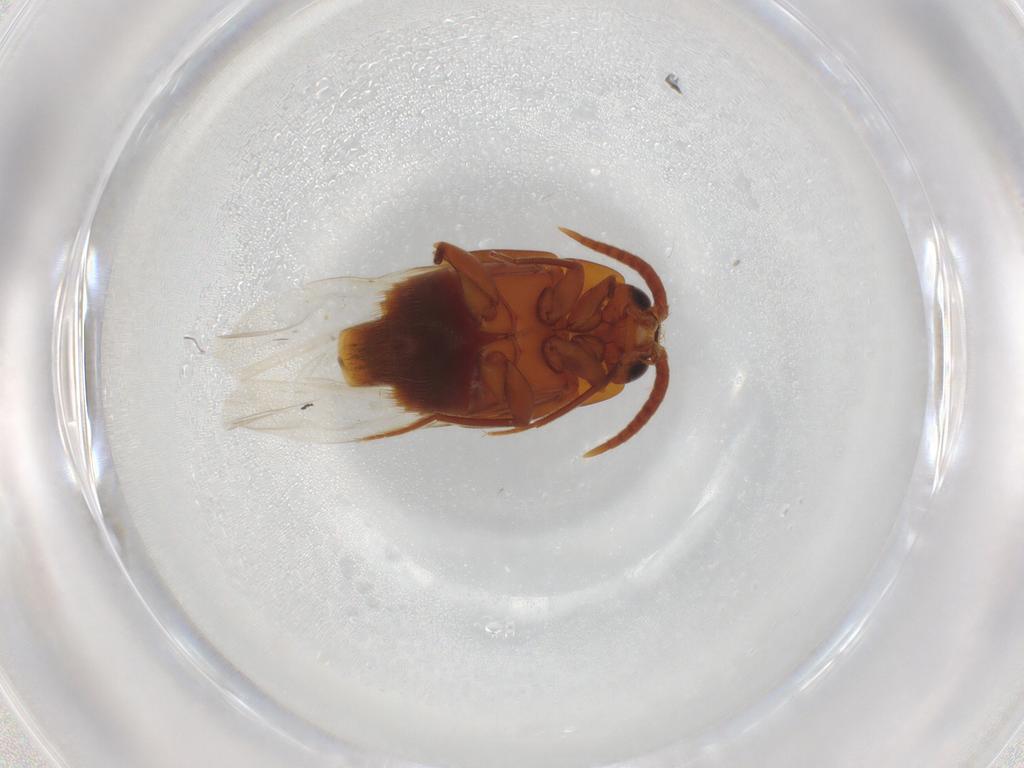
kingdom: Animalia
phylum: Arthropoda
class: Insecta
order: Coleoptera
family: Staphylinidae
